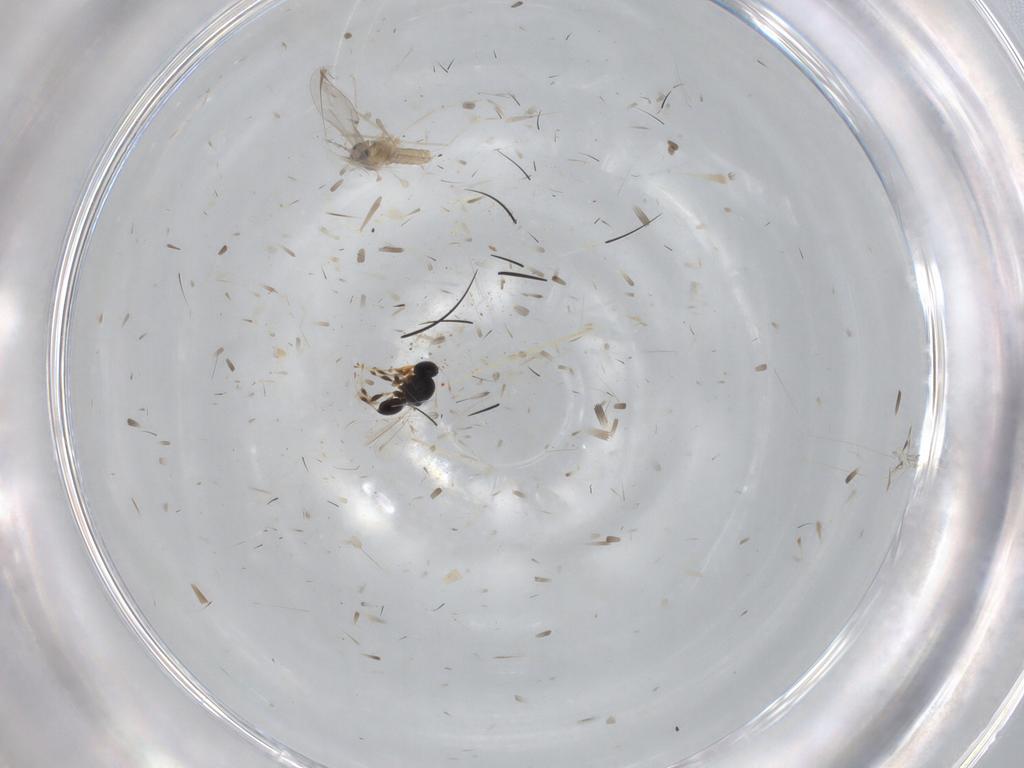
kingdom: Animalia
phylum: Arthropoda
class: Insecta
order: Hymenoptera
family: Platygastridae
